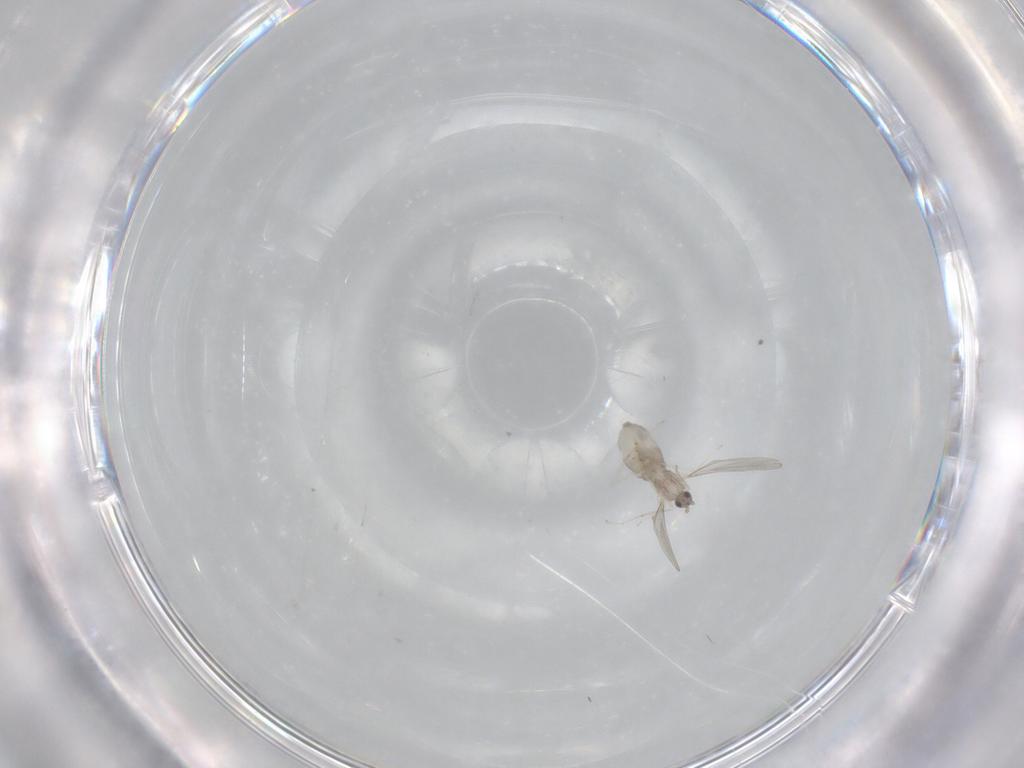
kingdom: Animalia
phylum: Arthropoda
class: Insecta
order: Diptera
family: Cecidomyiidae
